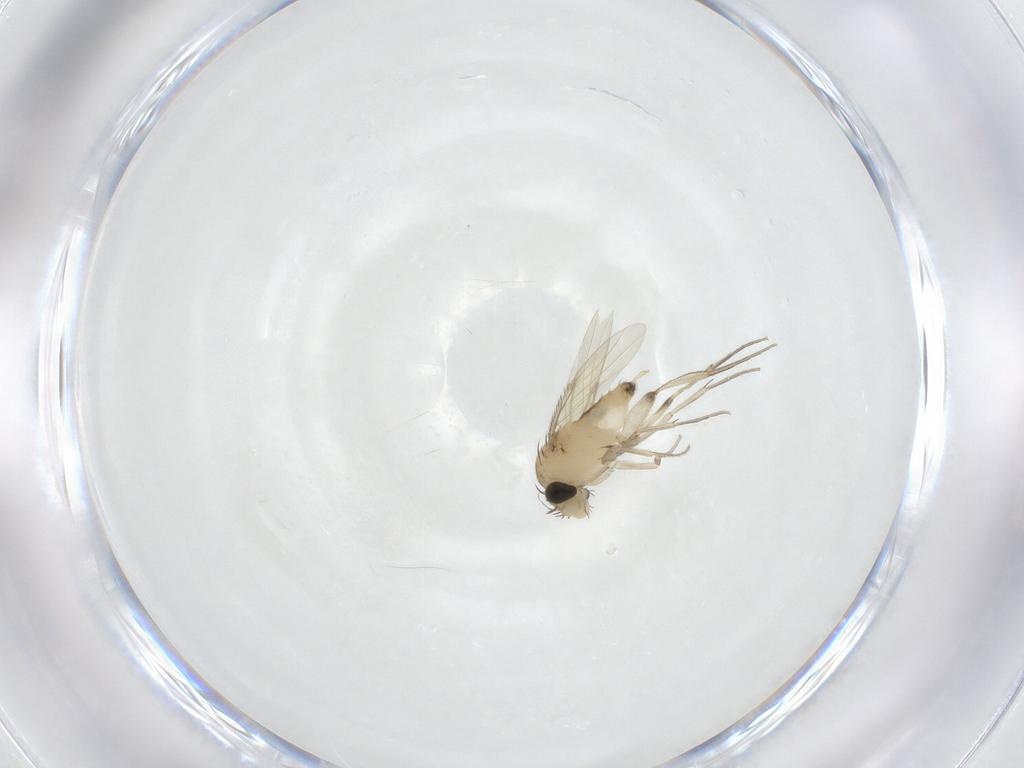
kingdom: Animalia
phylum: Arthropoda
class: Insecta
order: Diptera
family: Phoridae
